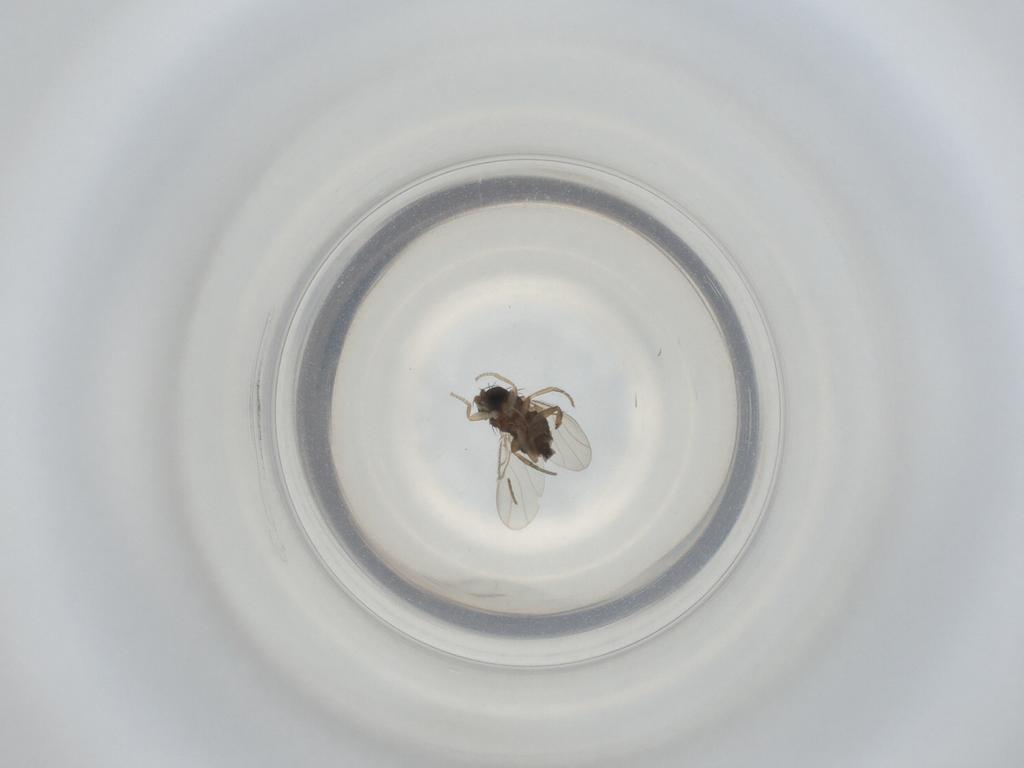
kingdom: Animalia
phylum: Arthropoda
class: Insecta
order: Diptera
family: Phoridae
